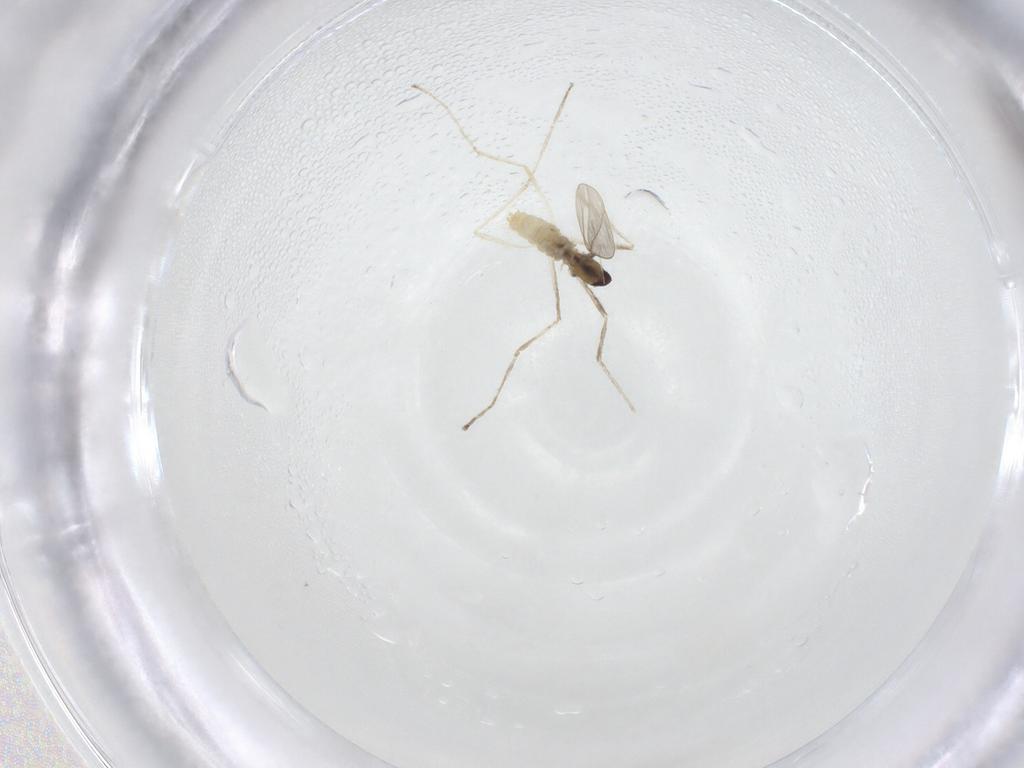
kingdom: Animalia
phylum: Arthropoda
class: Insecta
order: Diptera
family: Cecidomyiidae
